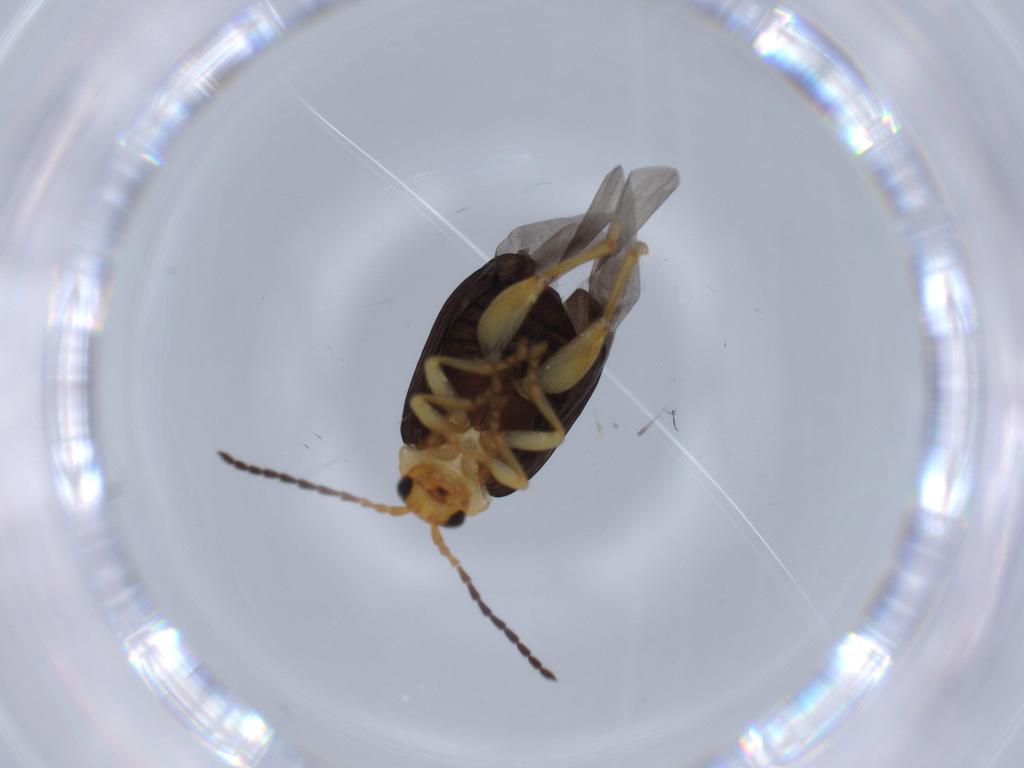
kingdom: Animalia
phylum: Arthropoda
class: Insecta
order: Coleoptera
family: Chrysomelidae
